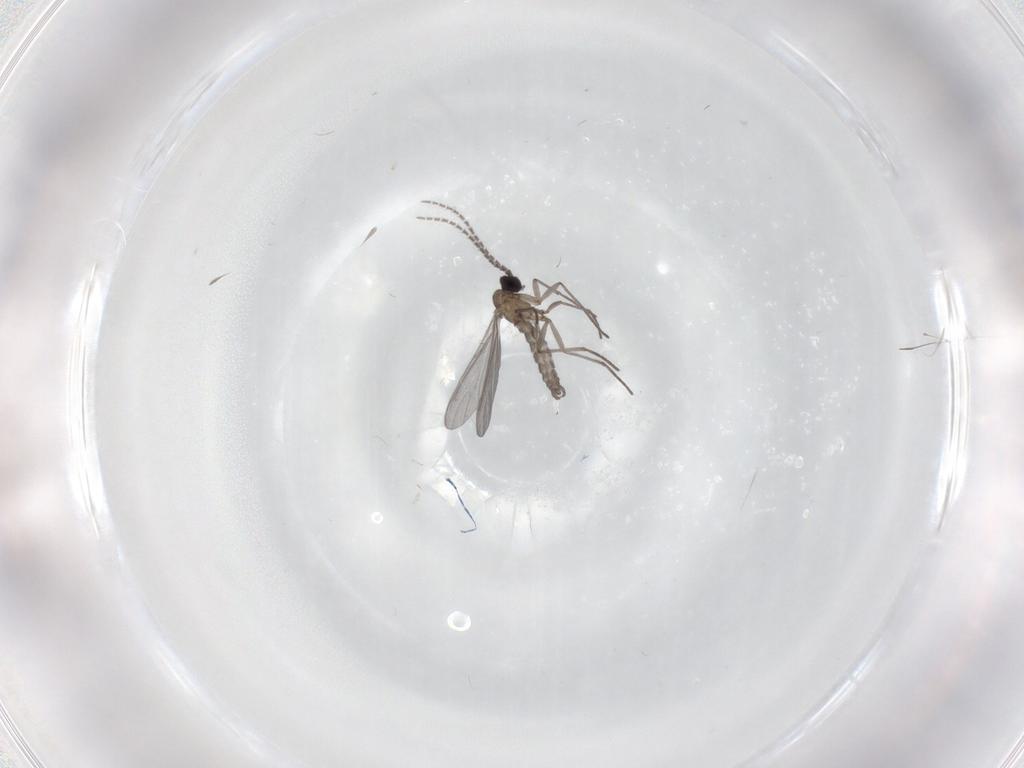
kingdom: Animalia
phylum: Arthropoda
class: Insecta
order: Diptera
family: Sciaridae
